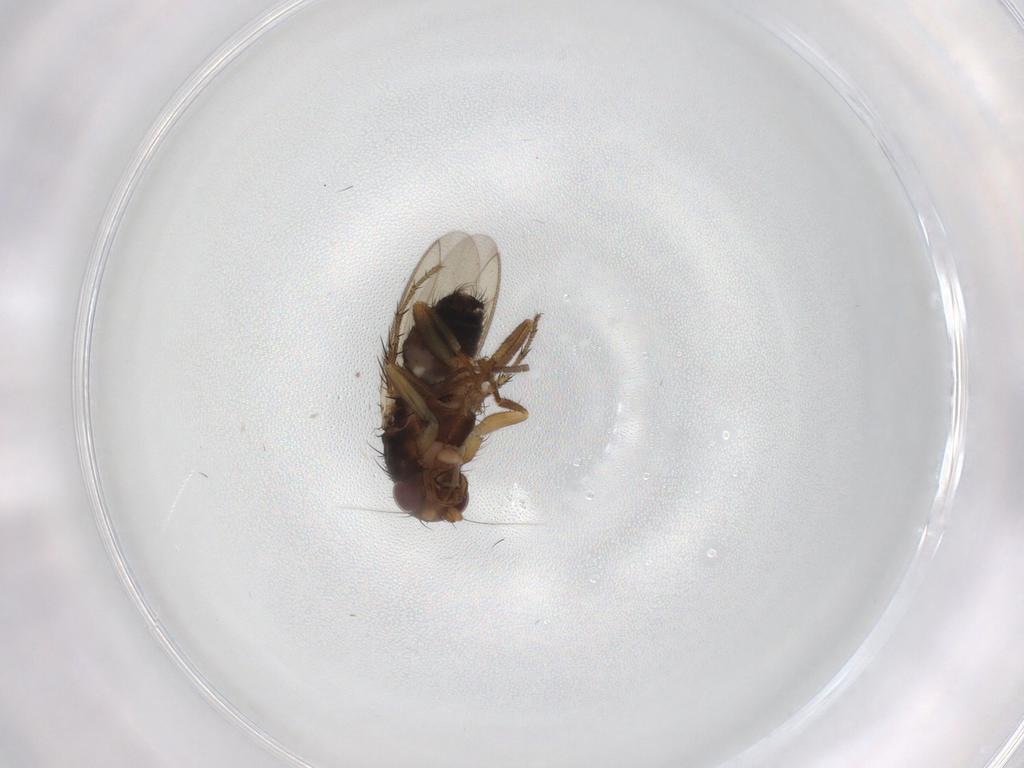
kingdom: Animalia
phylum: Arthropoda
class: Insecta
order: Diptera
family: Sphaeroceridae
